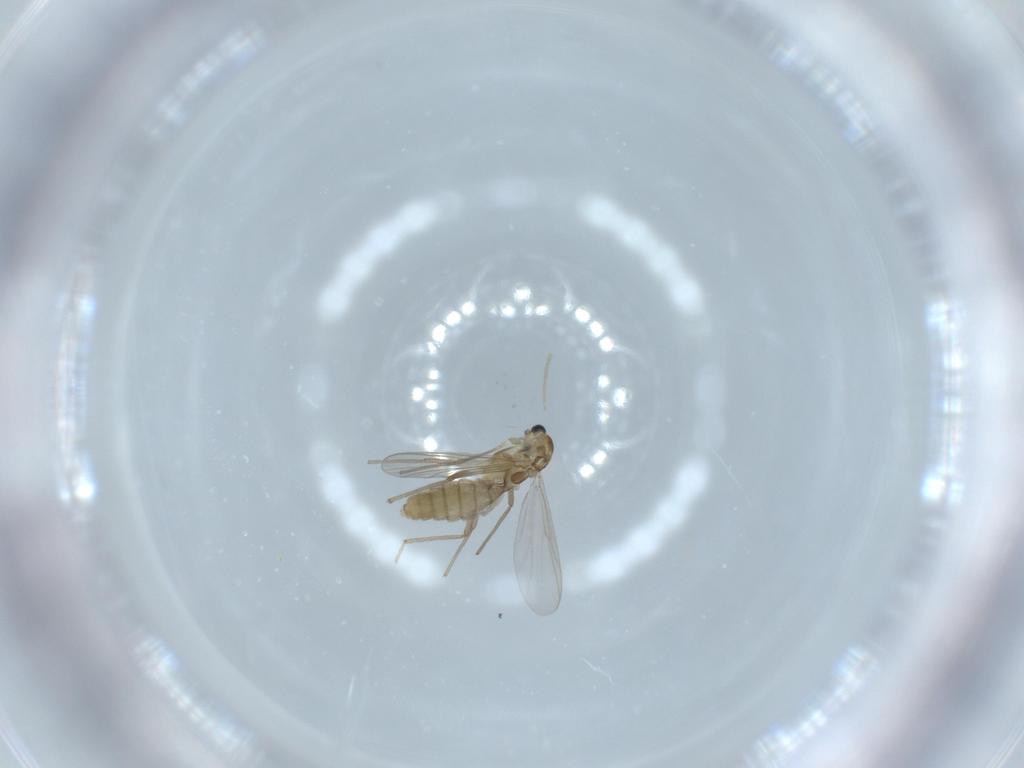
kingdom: Animalia
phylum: Arthropoda
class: Insecta
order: Diptera
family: Chironomidae
